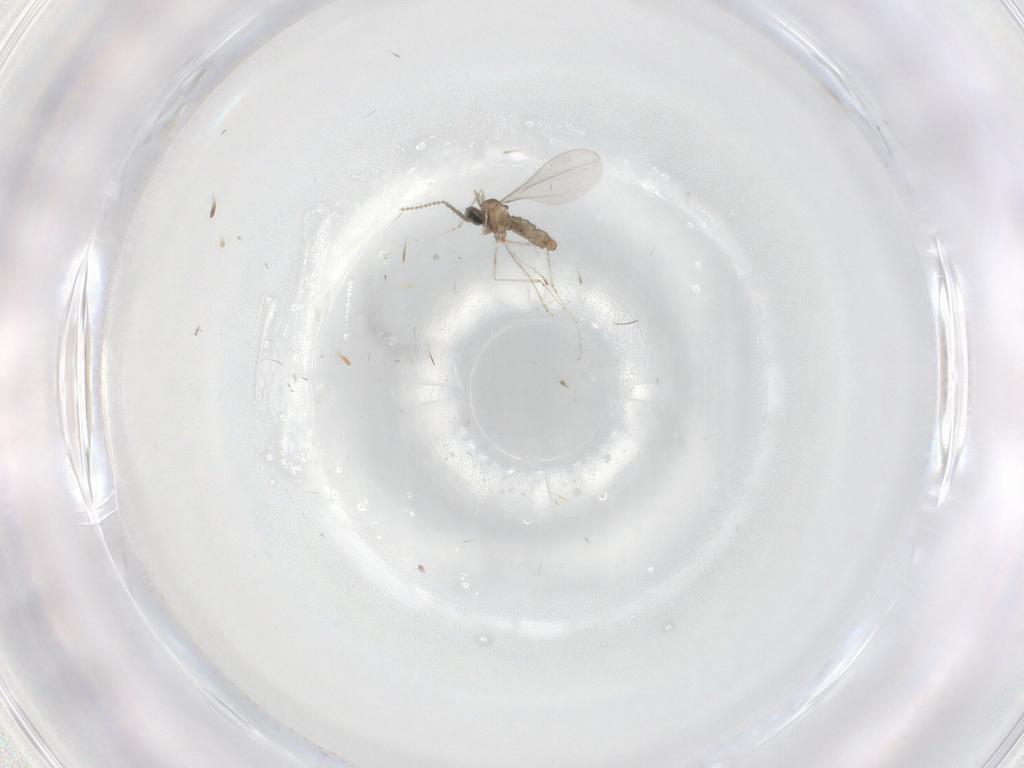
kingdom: Animalia
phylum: Arthropoda
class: Insecta
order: Diptera
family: Cecidomyiidae
